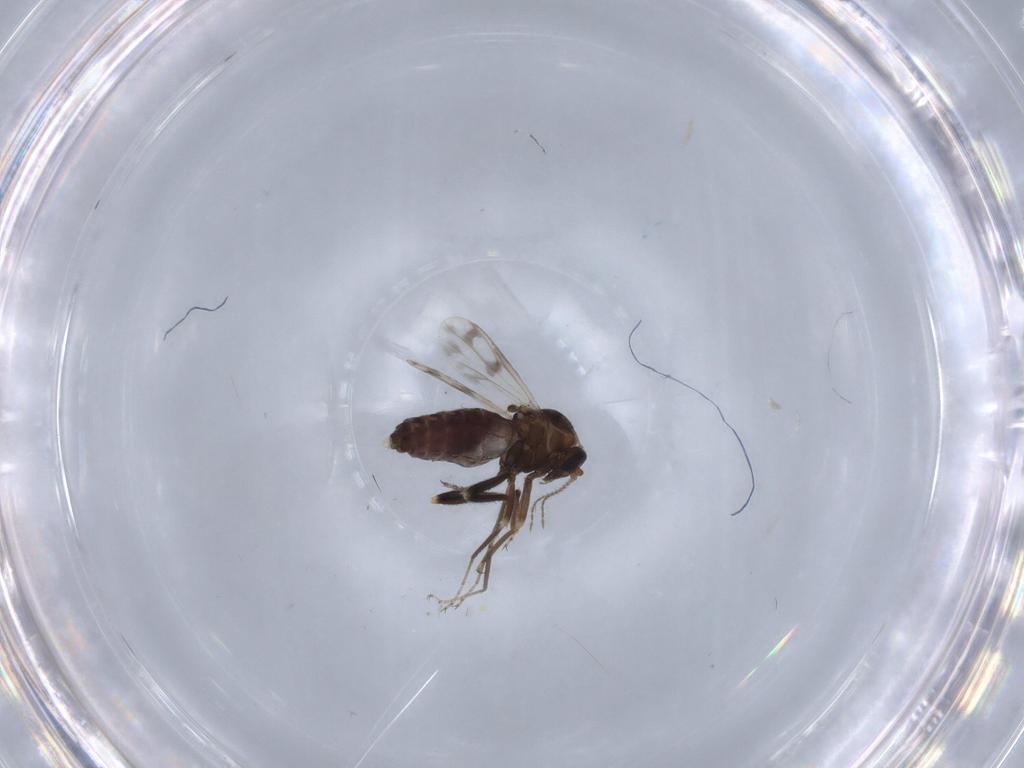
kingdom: Animalia
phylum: Arthropoda
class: Insecta
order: Diptera
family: Ceratopogonidae
